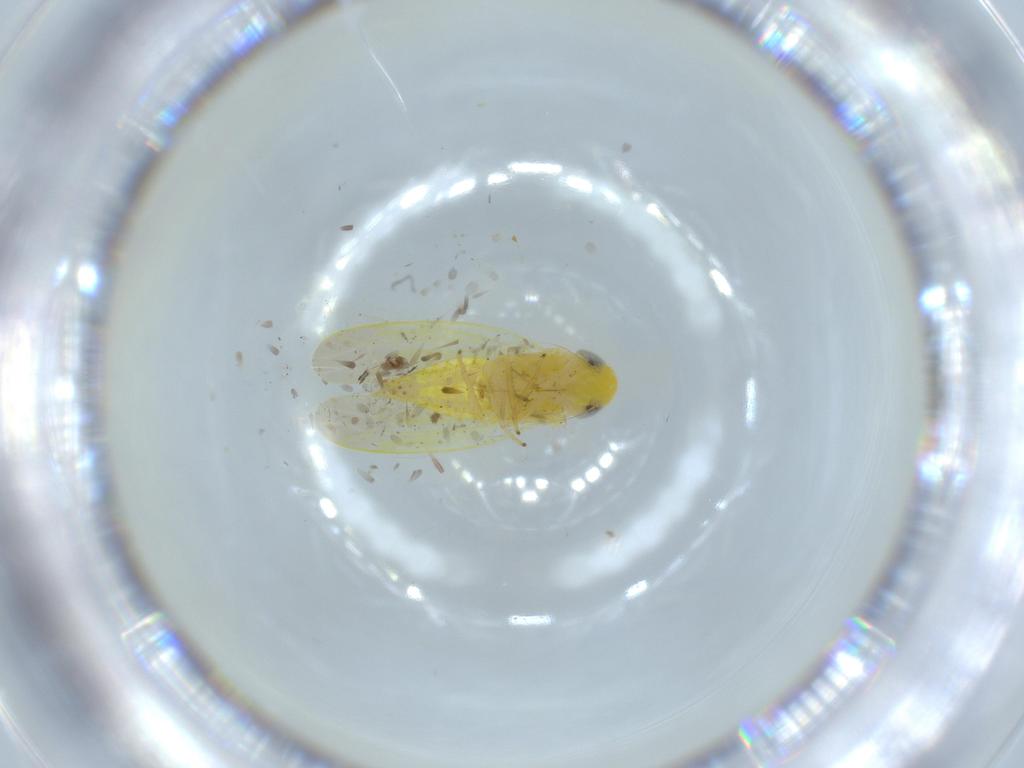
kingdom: Animalia
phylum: Arthropoda
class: Insecta
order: Hemiptera
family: Cicadellidae
